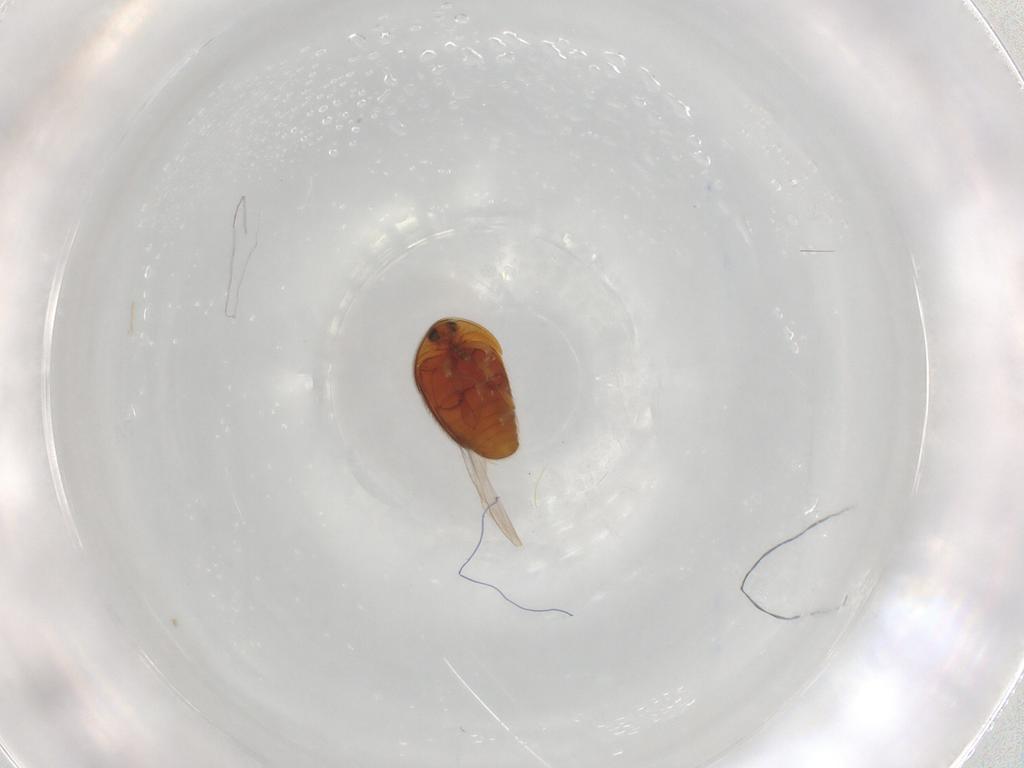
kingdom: Animalia
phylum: Arthropoda
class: Insecta
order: Coleoptera
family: Corylophidae
